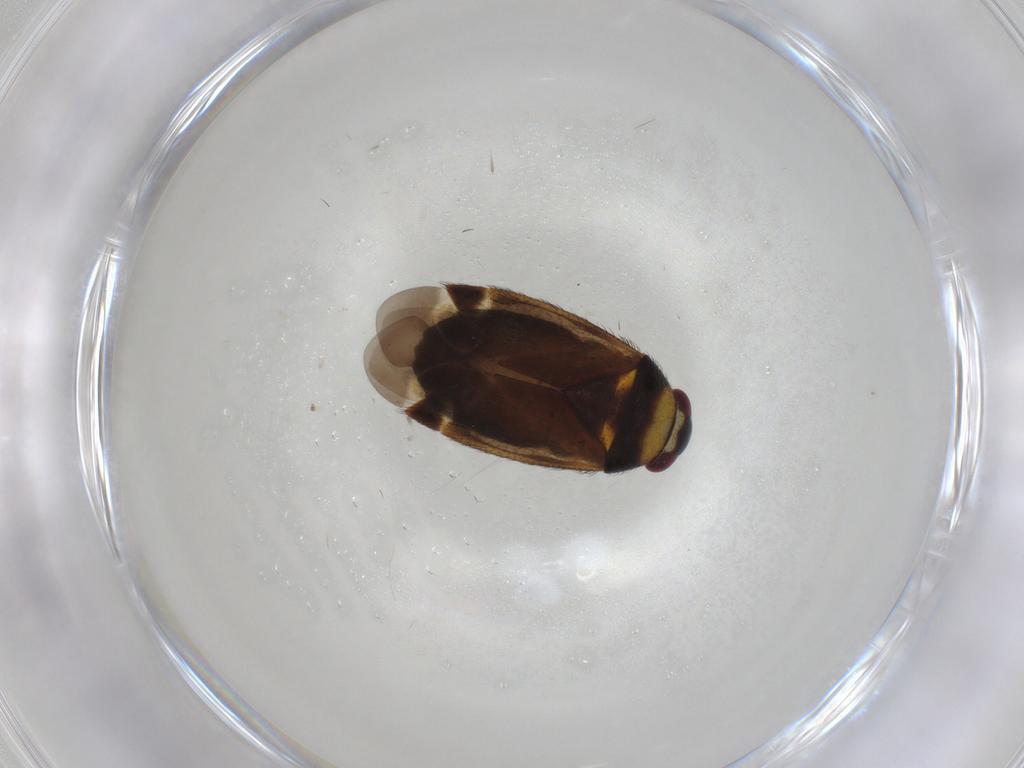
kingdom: Animalia
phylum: Arthropoda
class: Insecta
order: Hemiptera
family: Miridae
